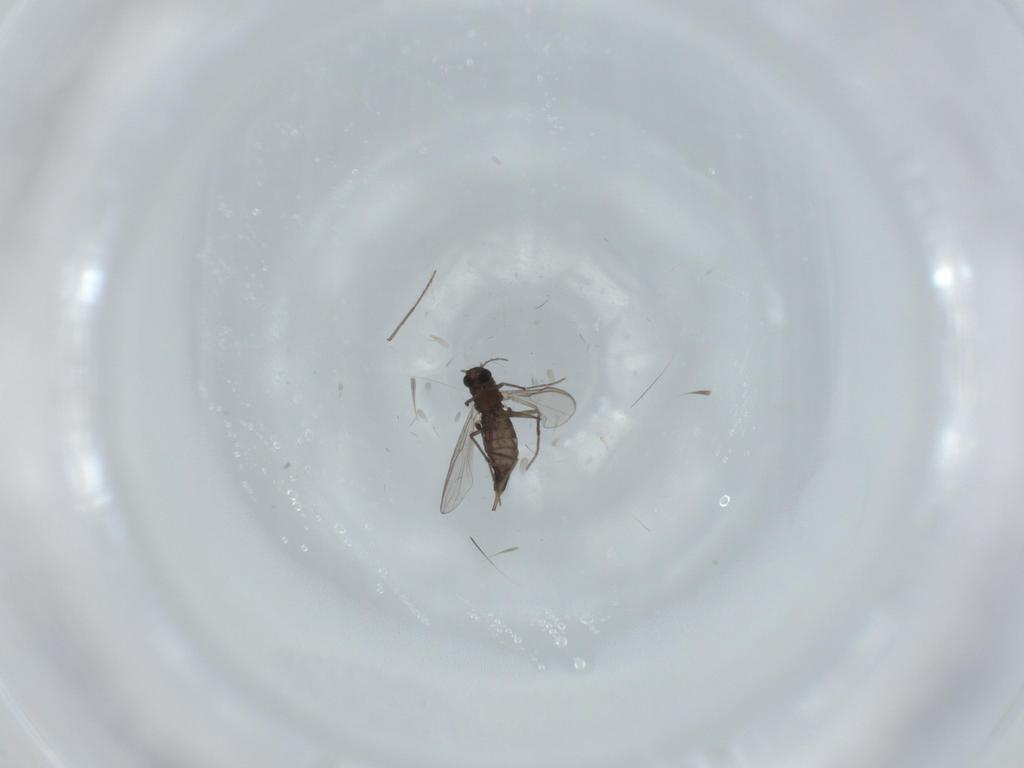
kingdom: Animalia
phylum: Arthropoda
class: Insecta
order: Diptera
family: Chironomidae
